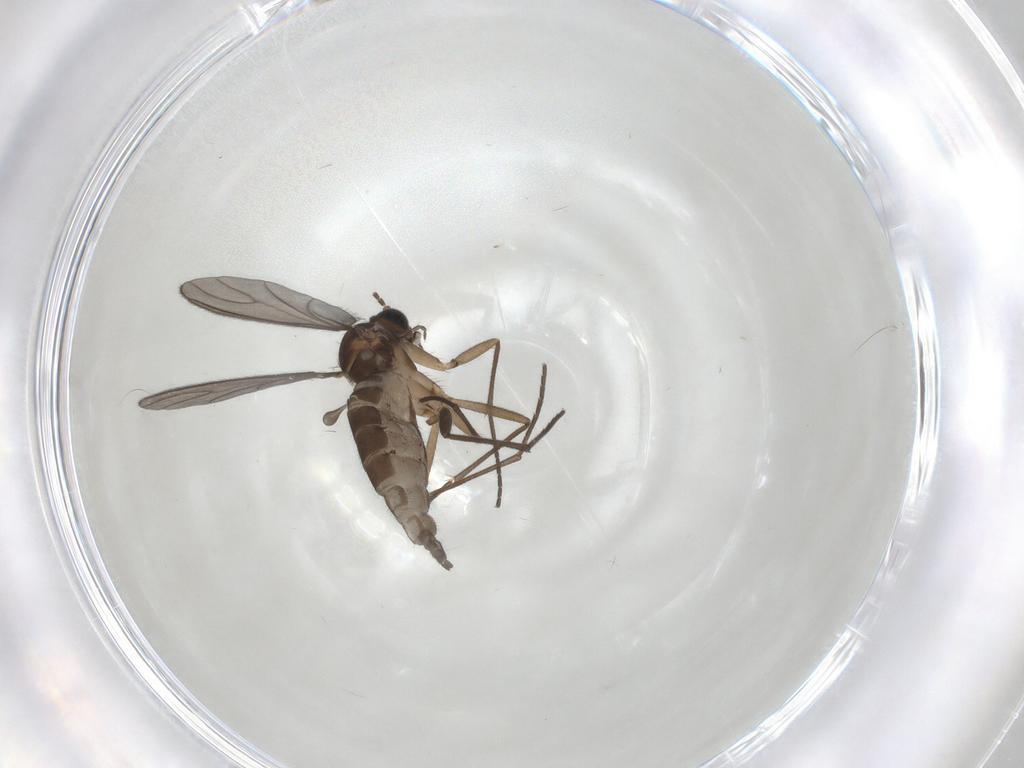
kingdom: Animalia
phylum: Arthropoda
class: Insecta
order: Diptera
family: Sciaridae
